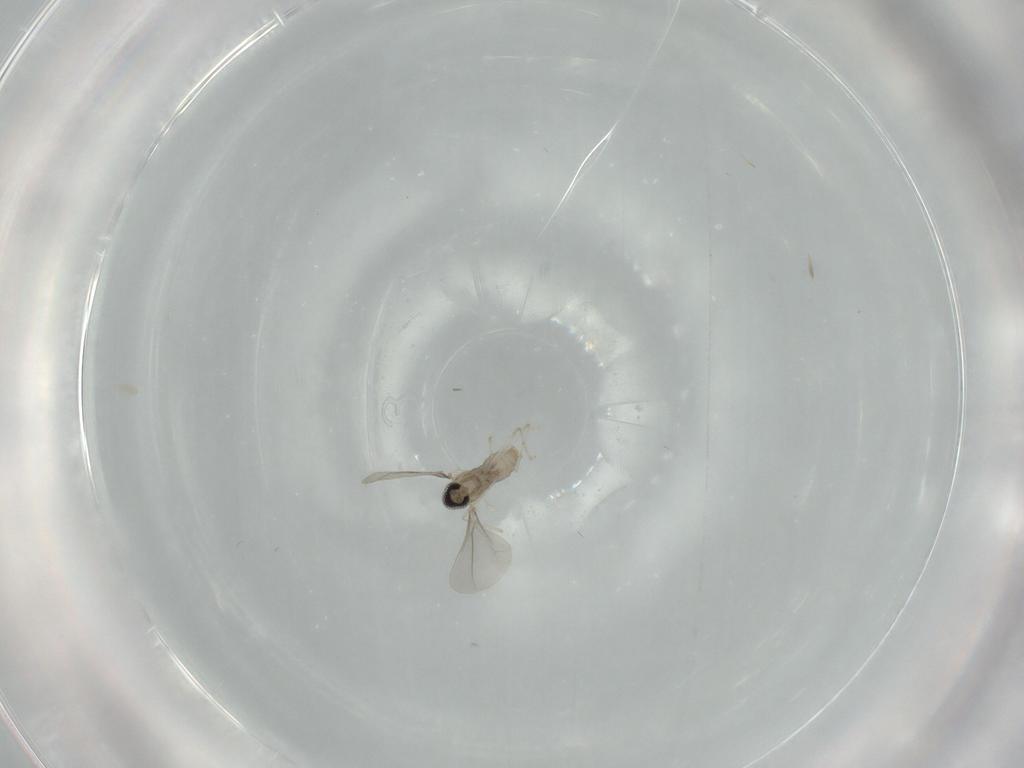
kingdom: Animalia
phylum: Arthropoda
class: Insecta
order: Diptera
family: Cecidomyiidae
